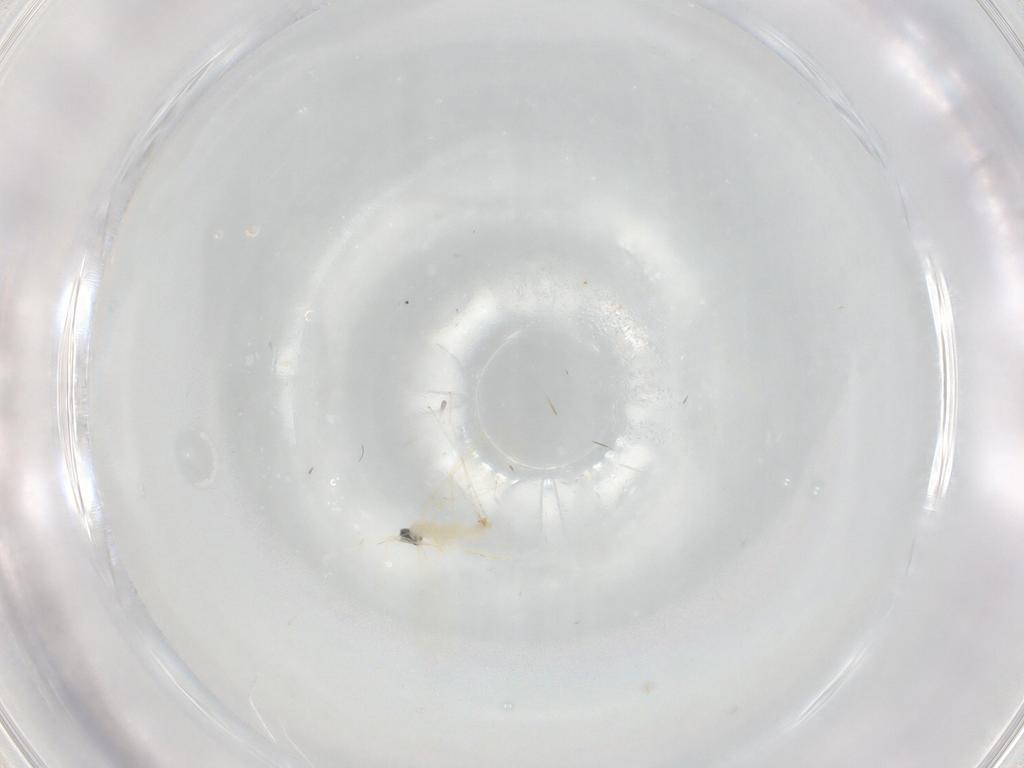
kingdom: Animalia
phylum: Arthropoda
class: Insecta
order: Diptera
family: Cecidomyiidae
